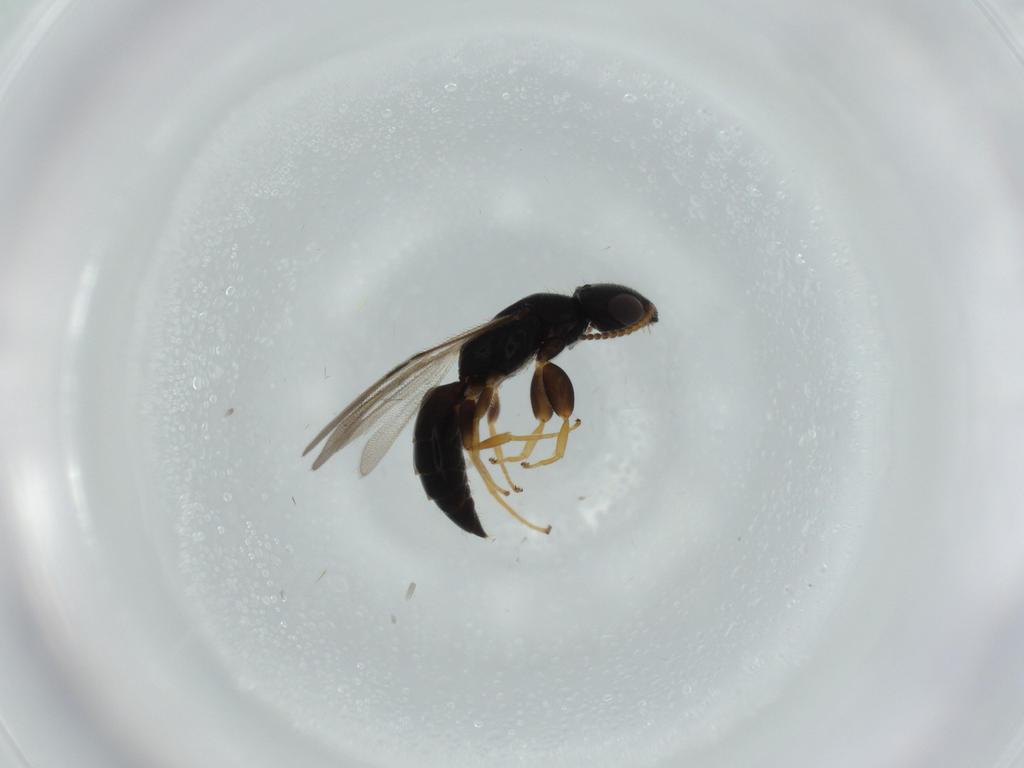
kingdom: Animalia
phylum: Arthropoda
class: Insecta
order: Hymenoptera
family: Bethylidae
